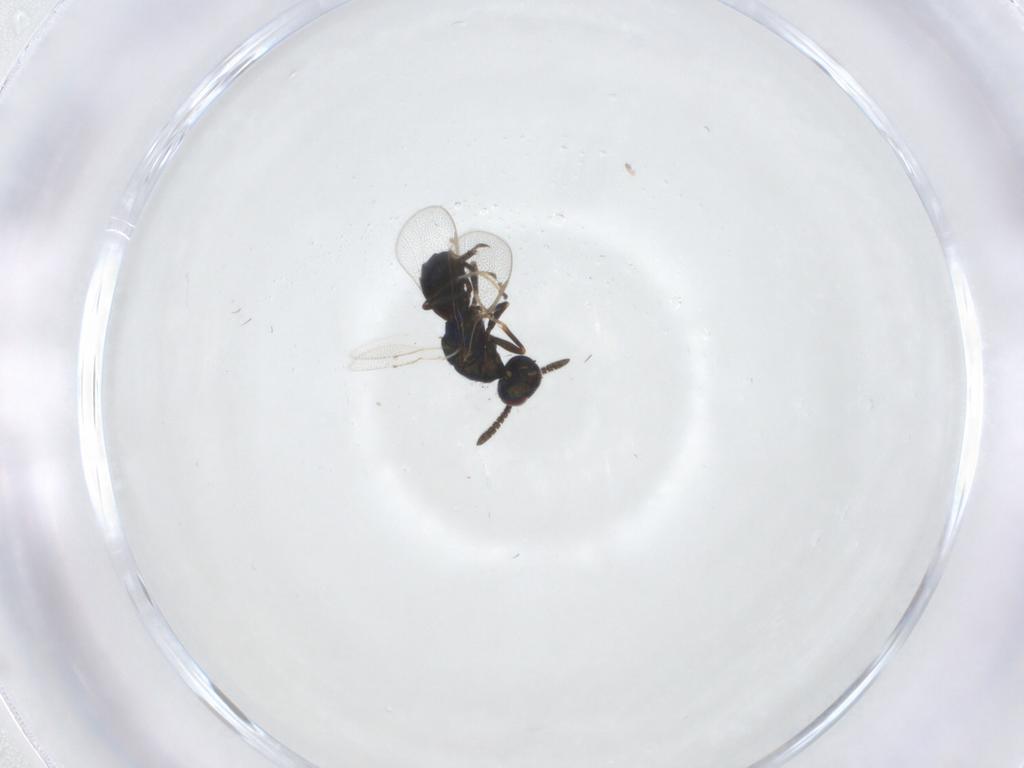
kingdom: Animalia
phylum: Arthropoda
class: Insecta
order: Hymenoptera
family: Torymidae
